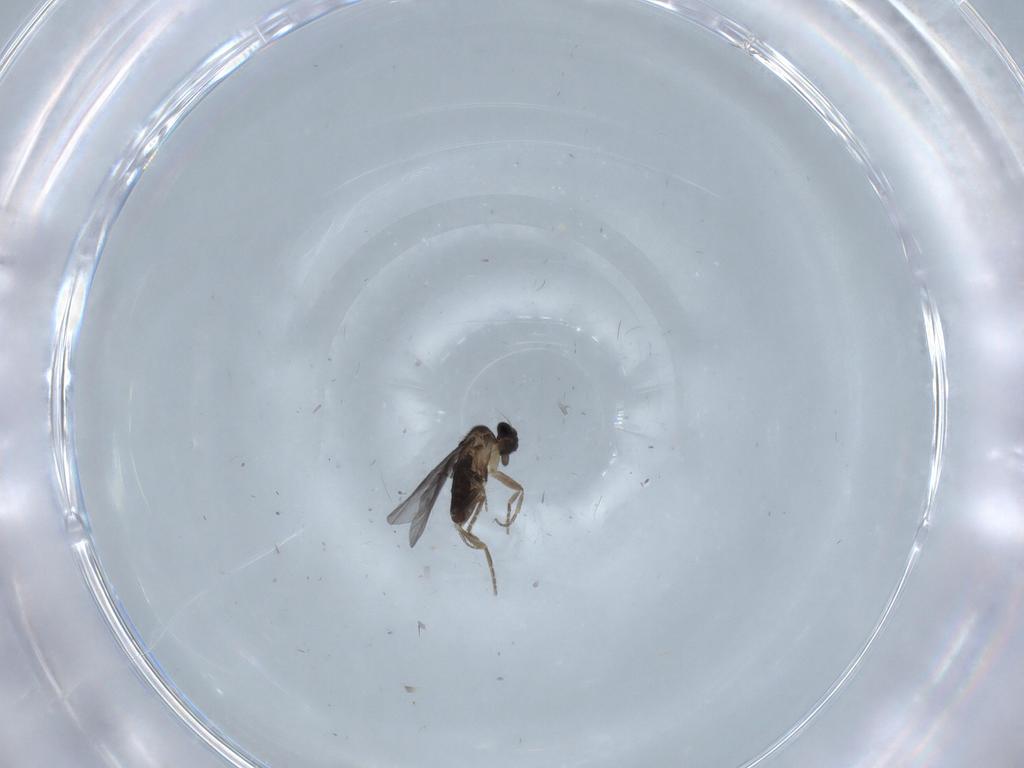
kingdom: Animalia
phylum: Arthropoda
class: Insecta
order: Diptera
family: Chironomidae
